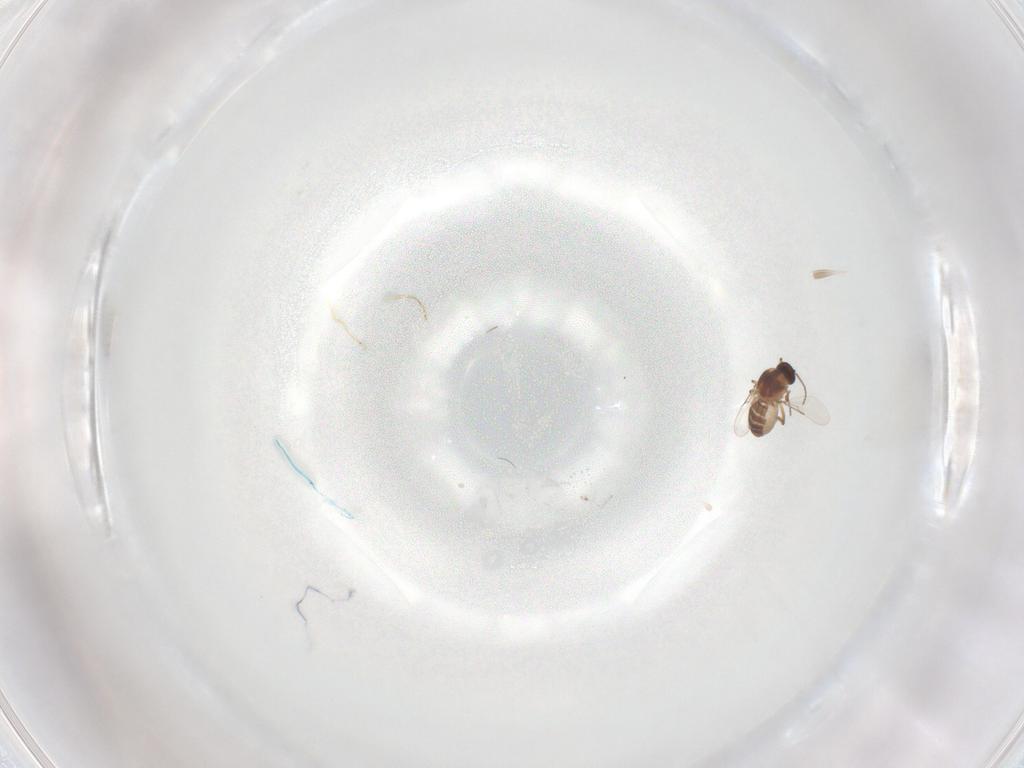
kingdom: Animalia
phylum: Arthropoda
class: Insecta
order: Diptera
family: Ceratopogonidae
